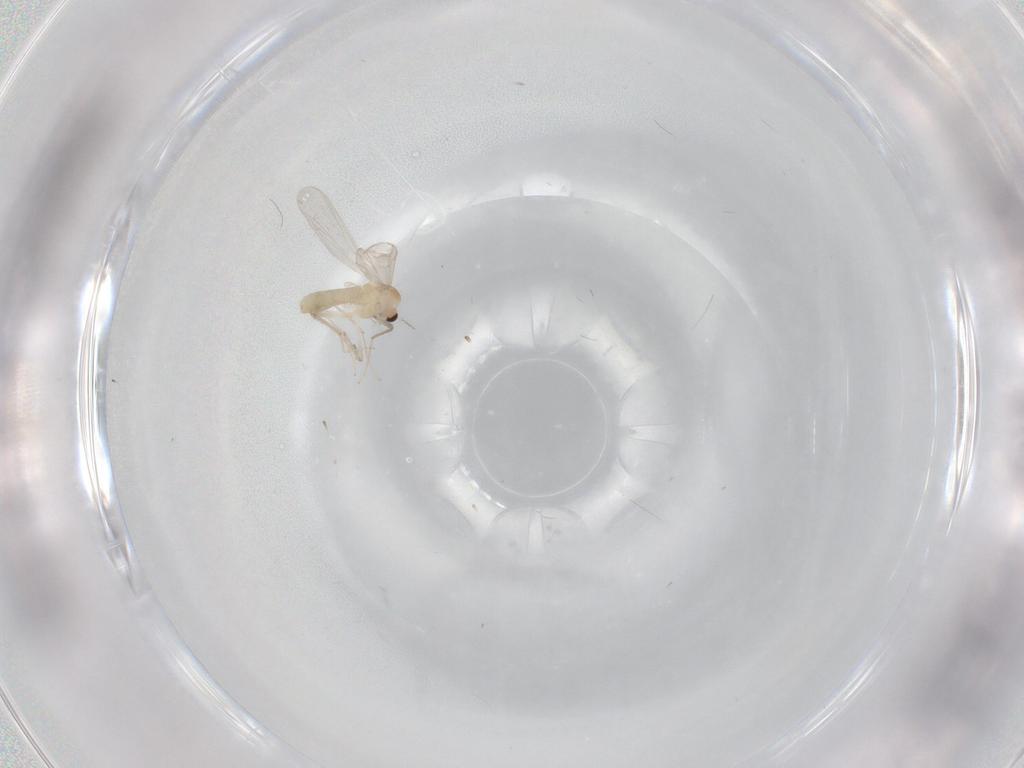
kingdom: Animalia
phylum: Arthropoda
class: Insecta
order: Diptera
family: Chironomidae
